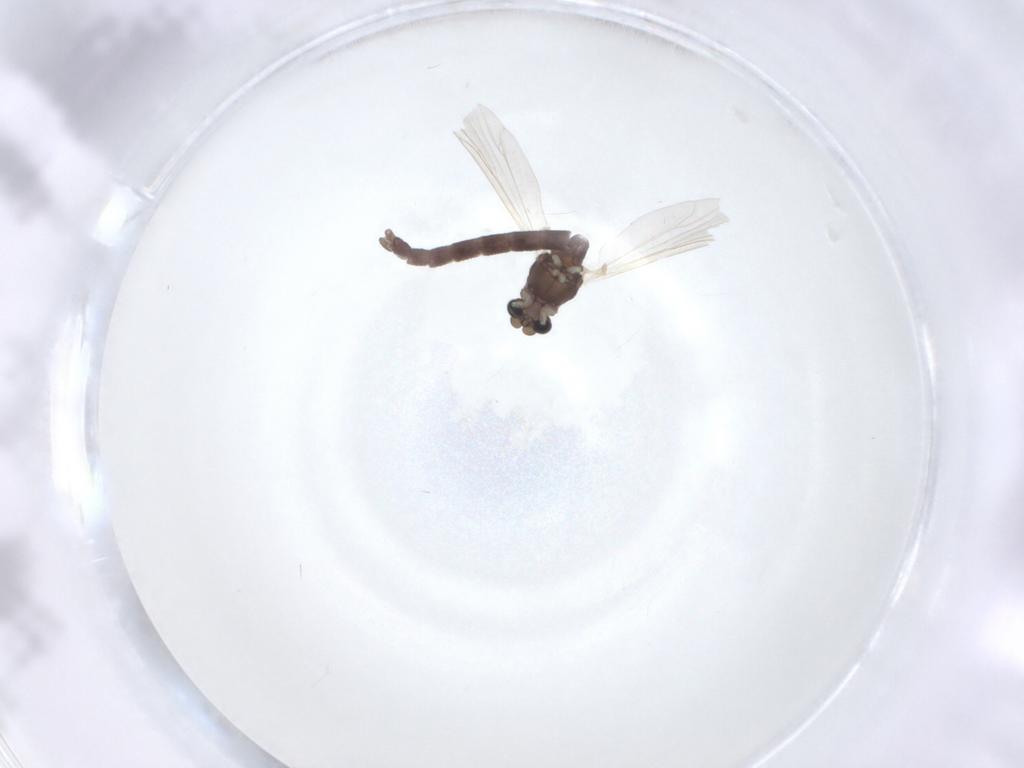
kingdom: Animalia
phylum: Arthropoda
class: Insecta
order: Diptera
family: Chironomidae
